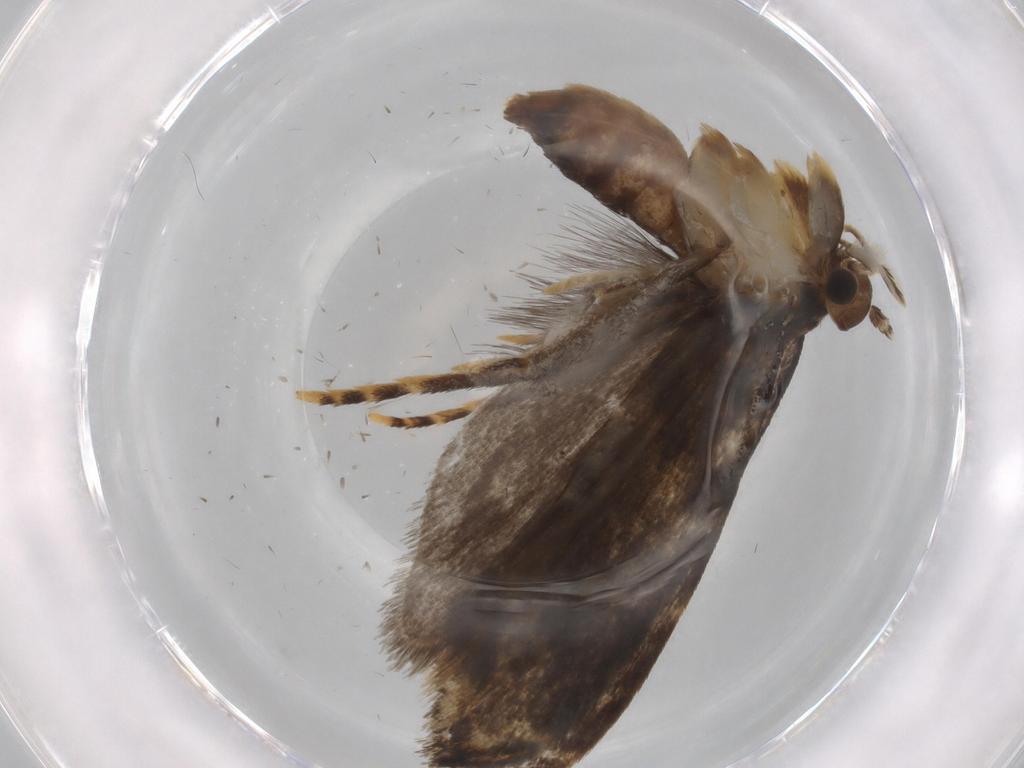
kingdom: Animalia
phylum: Arthropoda
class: Insecta
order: Lepidoptera
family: Dryadaulidae
